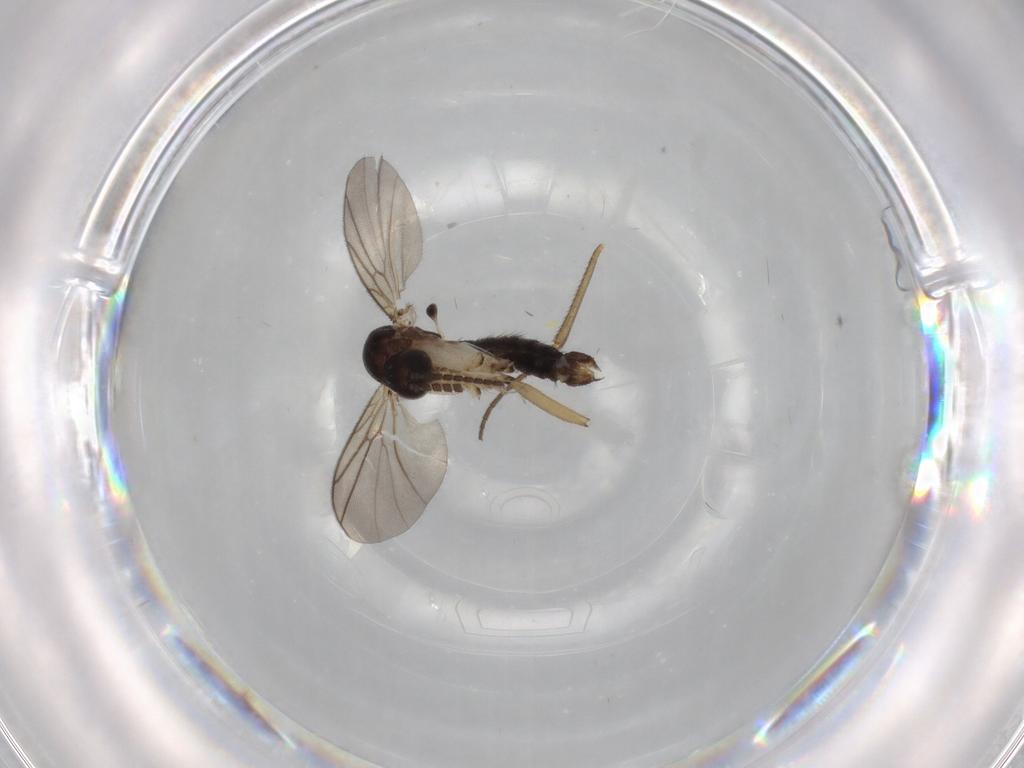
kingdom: Animalia
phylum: Arthropoda
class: Insecta
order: Diptera
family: Mycetophilidae
